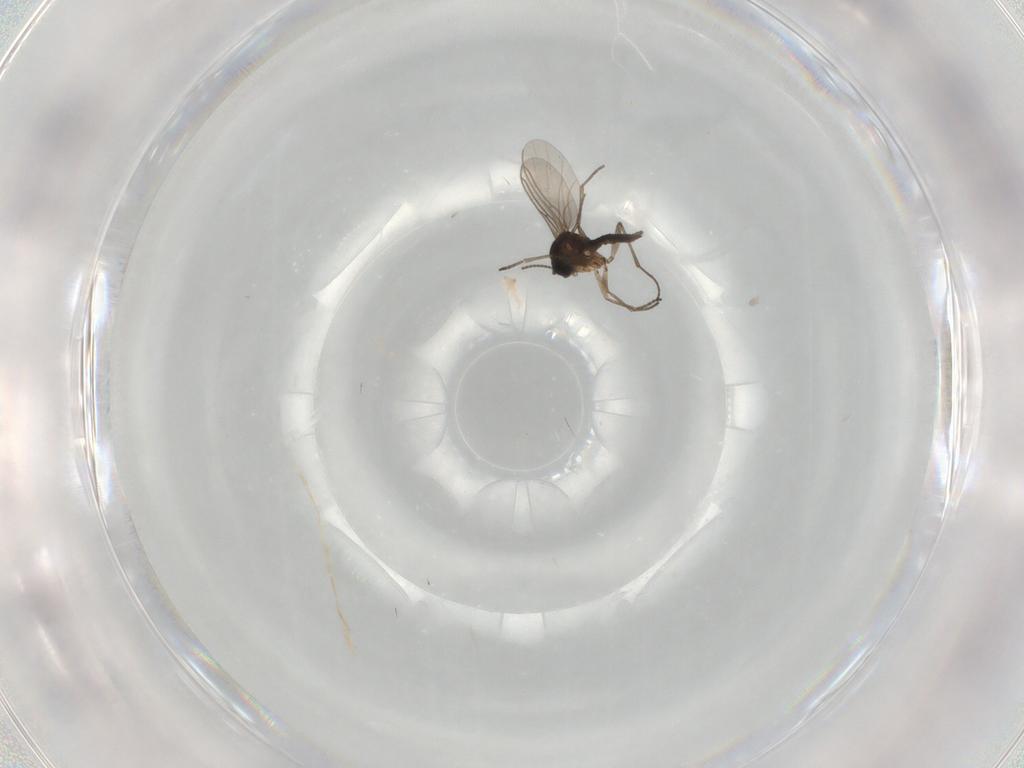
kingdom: Animalia
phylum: Arthropoda
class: Insecta
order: Diptera
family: Sciaridae
